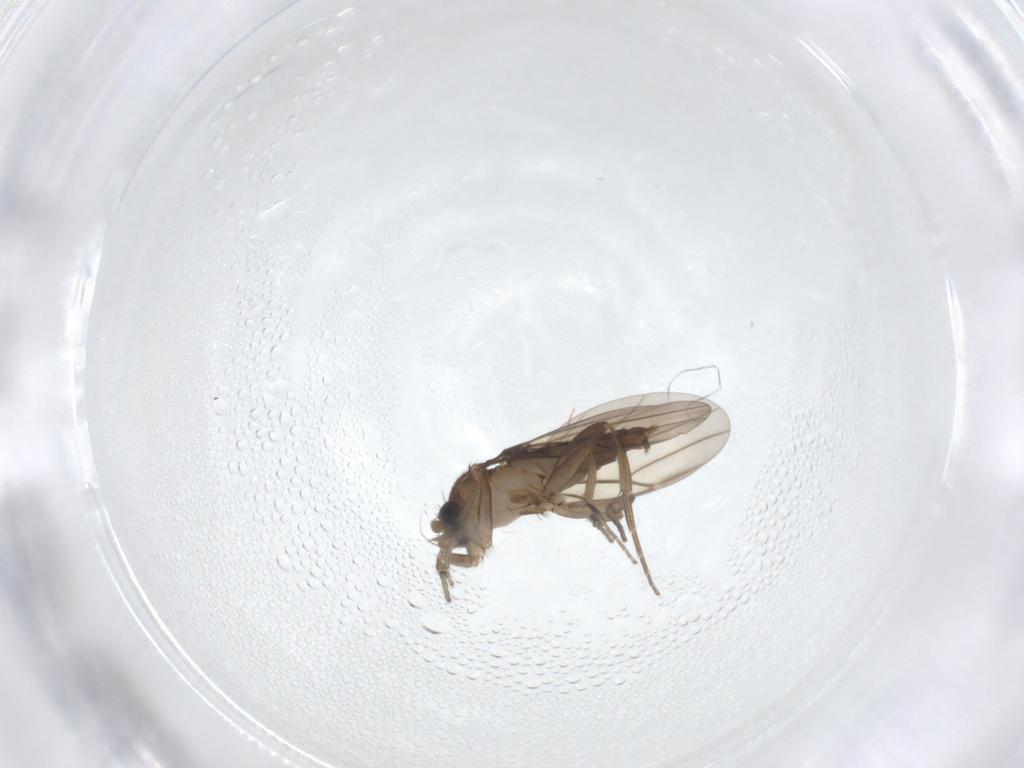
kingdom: Animalia
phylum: Arthropoda
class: Insecta
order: Diptera
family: Phoridae
